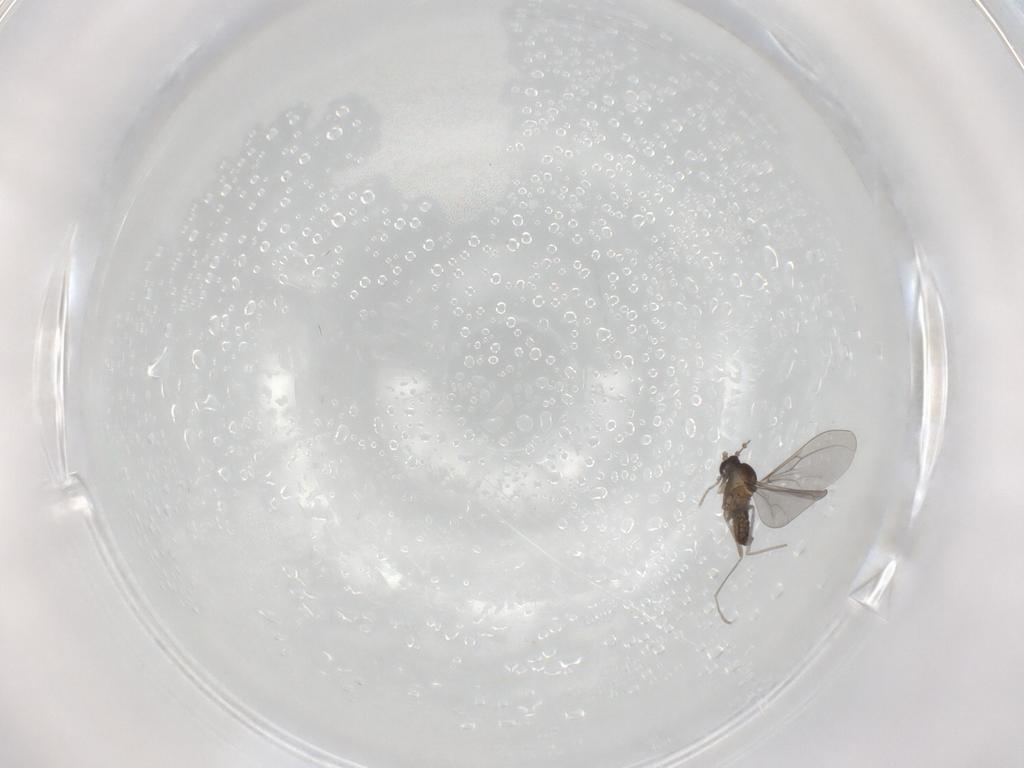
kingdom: Animalia
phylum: Arthropoda
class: Insecta
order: Diptera
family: Cecidomyiidae
